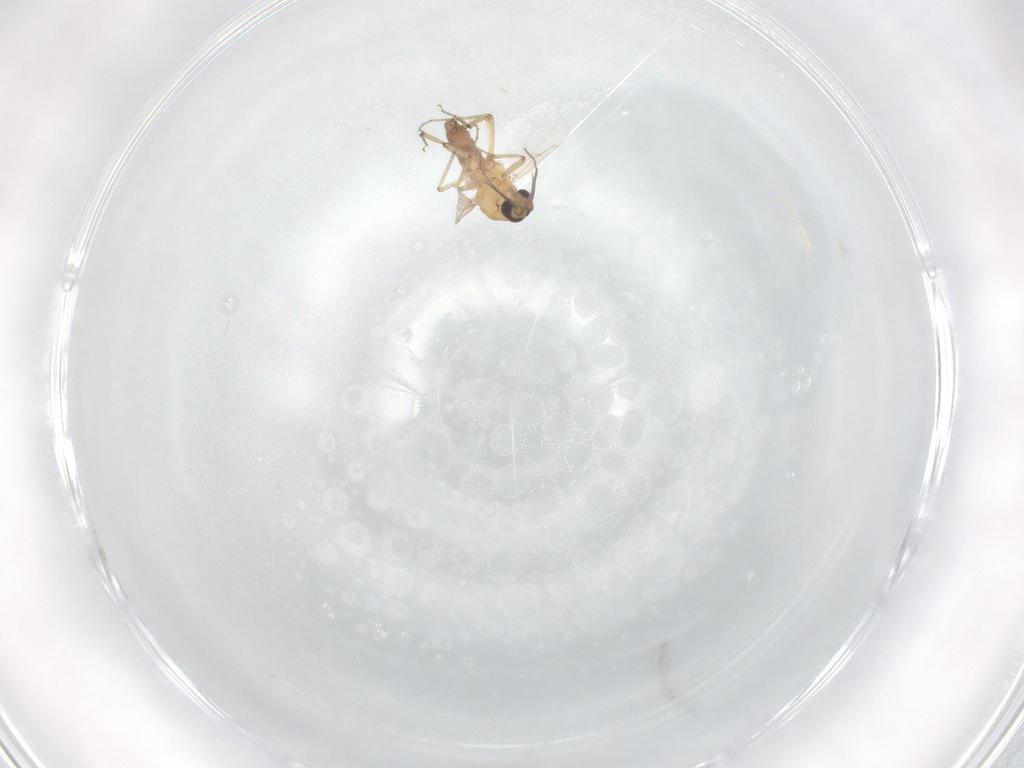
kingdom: Animalia
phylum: Arthropoda
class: Insecta
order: Diptera
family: Ceratopogonidae
